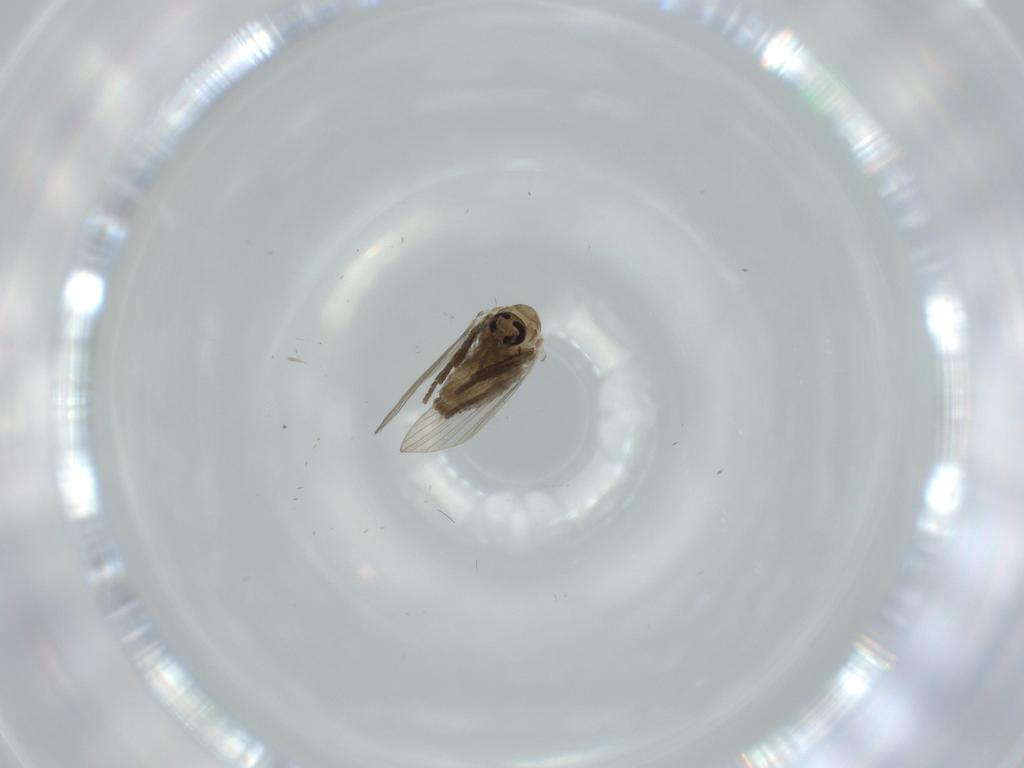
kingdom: Animalia
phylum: Arthropoda
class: Insecta
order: Diptera
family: Psychodidae
